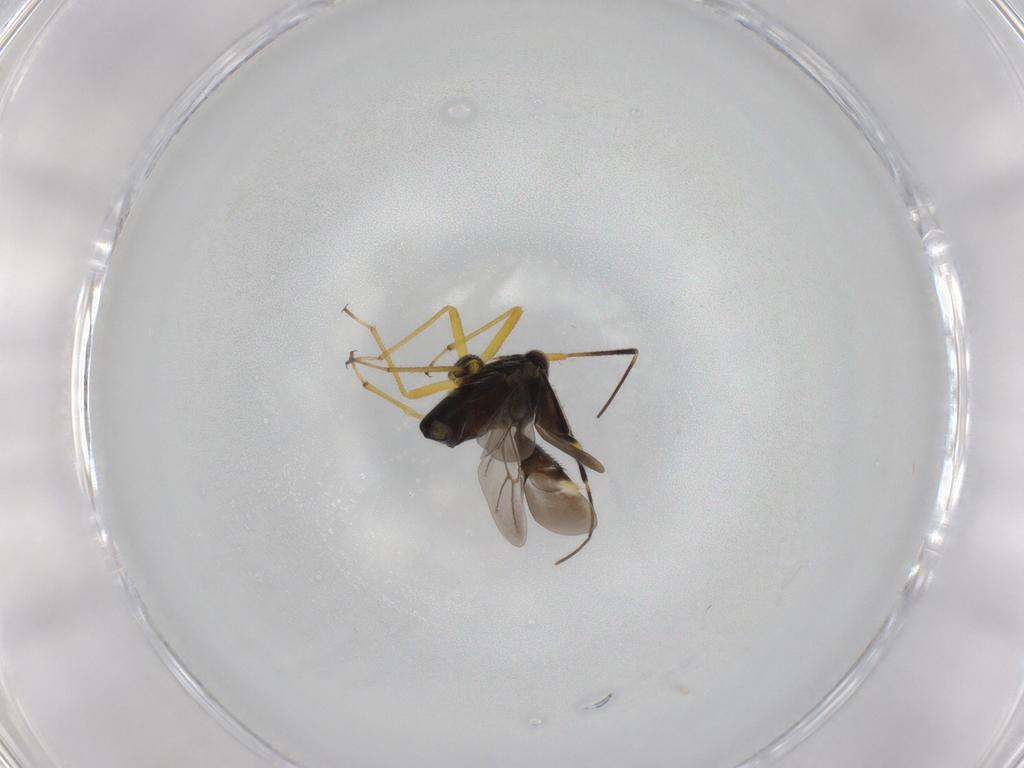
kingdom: Animalia
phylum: Arthropoda
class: Insecta
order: Hemiptera
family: Miridae
